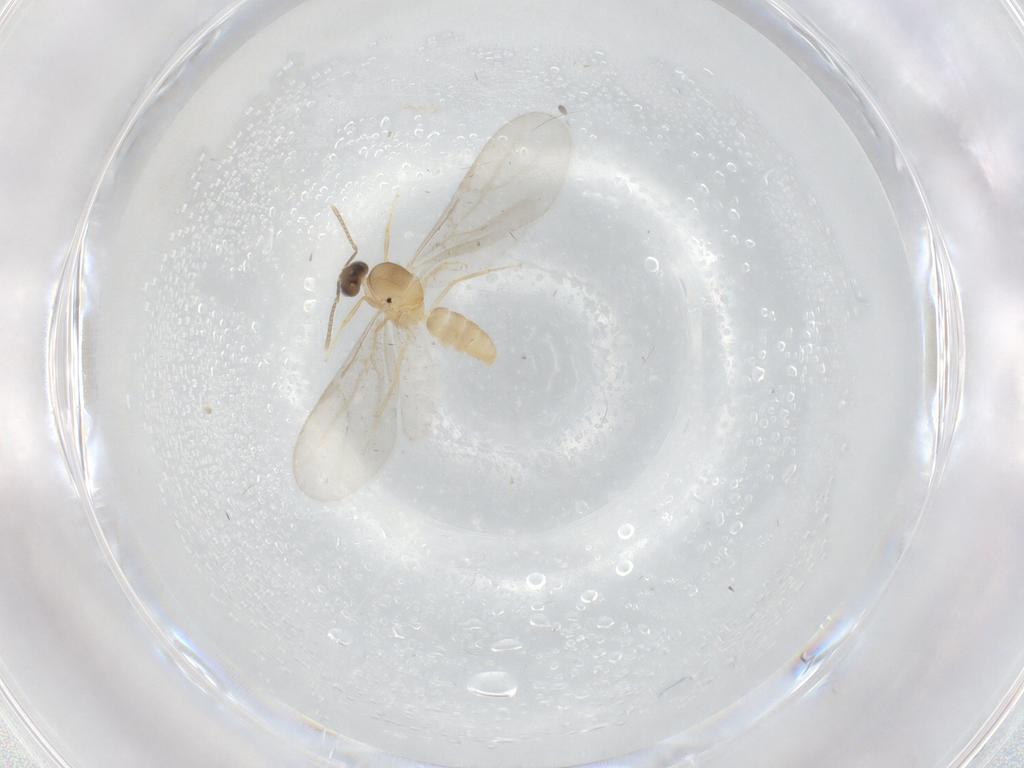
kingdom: Animalia
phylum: Arthropoda
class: Insecta
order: Hymenoptera
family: Formicidae
